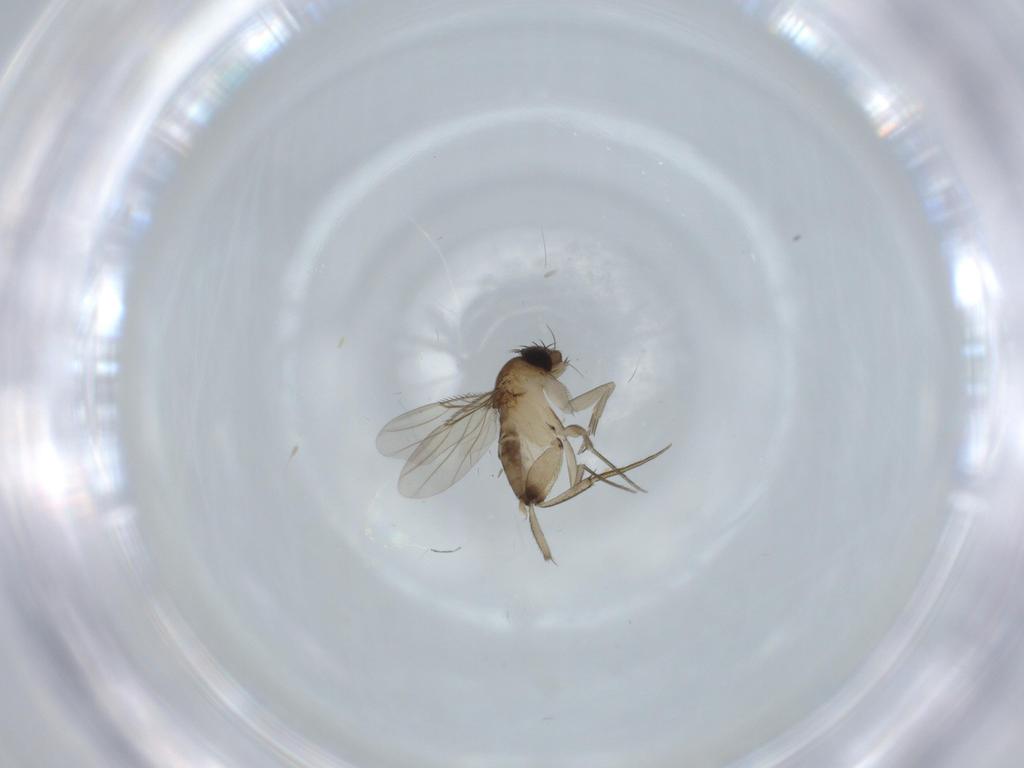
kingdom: Animalia
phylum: Arthropoda
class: Insecta
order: Diptera
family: Phoridae
